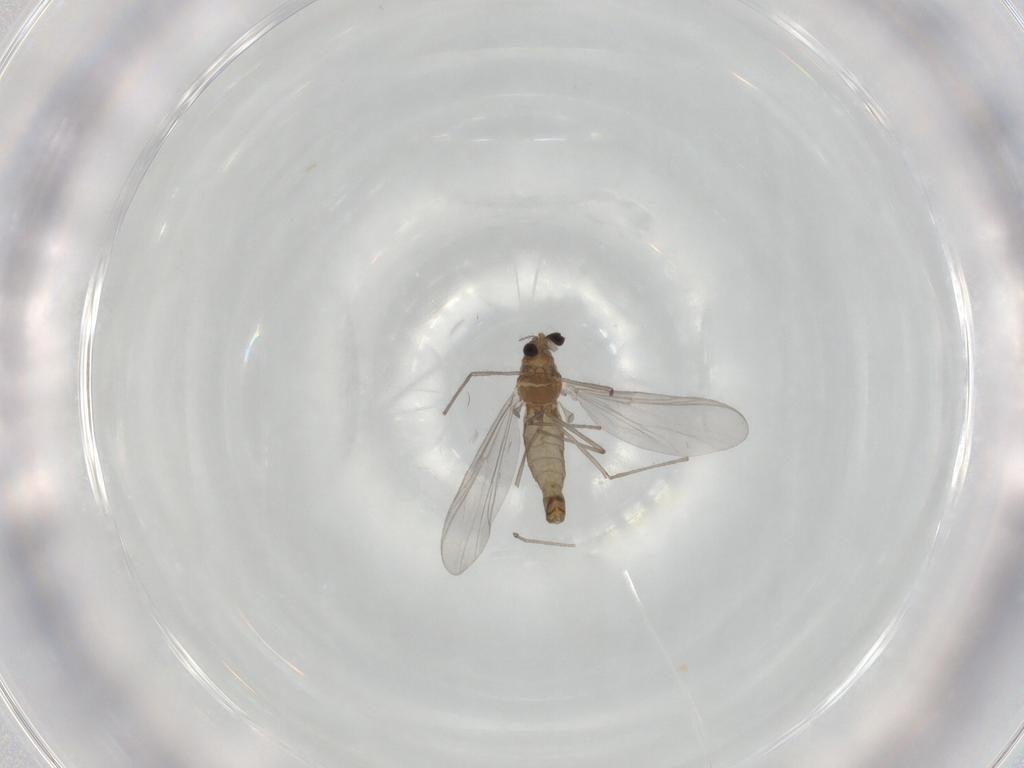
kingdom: Animalia
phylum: Arthropoda
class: Insecta
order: Diptera
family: Chironomidae
